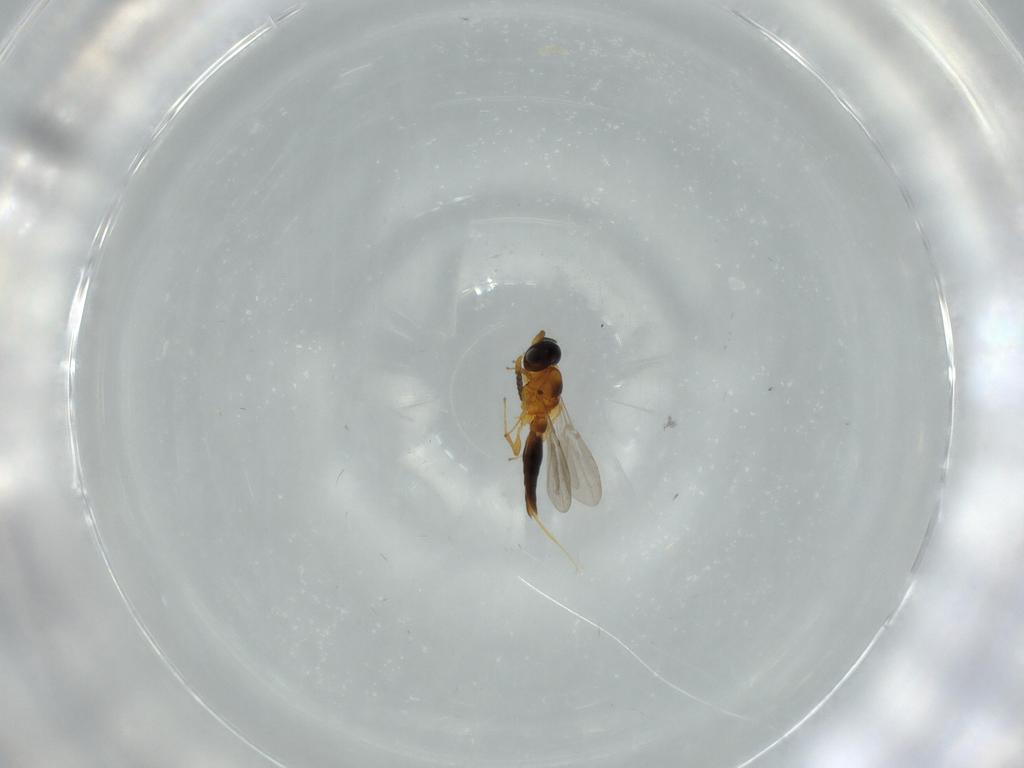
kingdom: Animalia
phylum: Arthropoda
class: Insecta
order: Hymenoptera
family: Platygastridae
